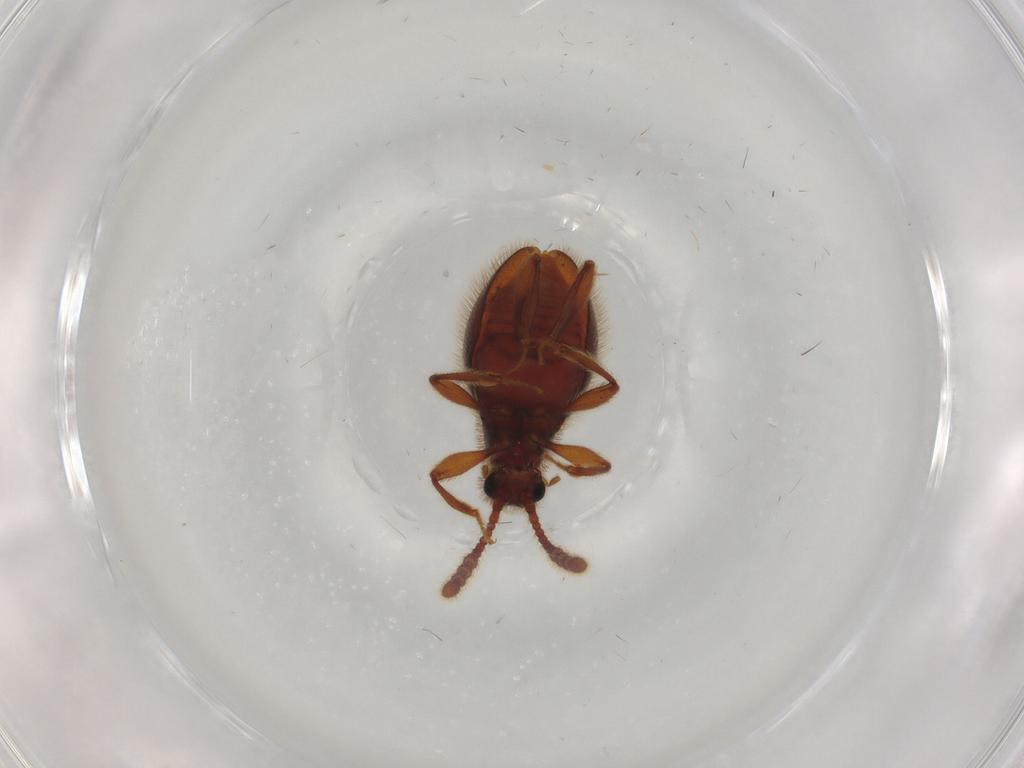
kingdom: Animalia
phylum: Arthropoda
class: Insecta
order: Coleoptera
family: Staphylinidae
